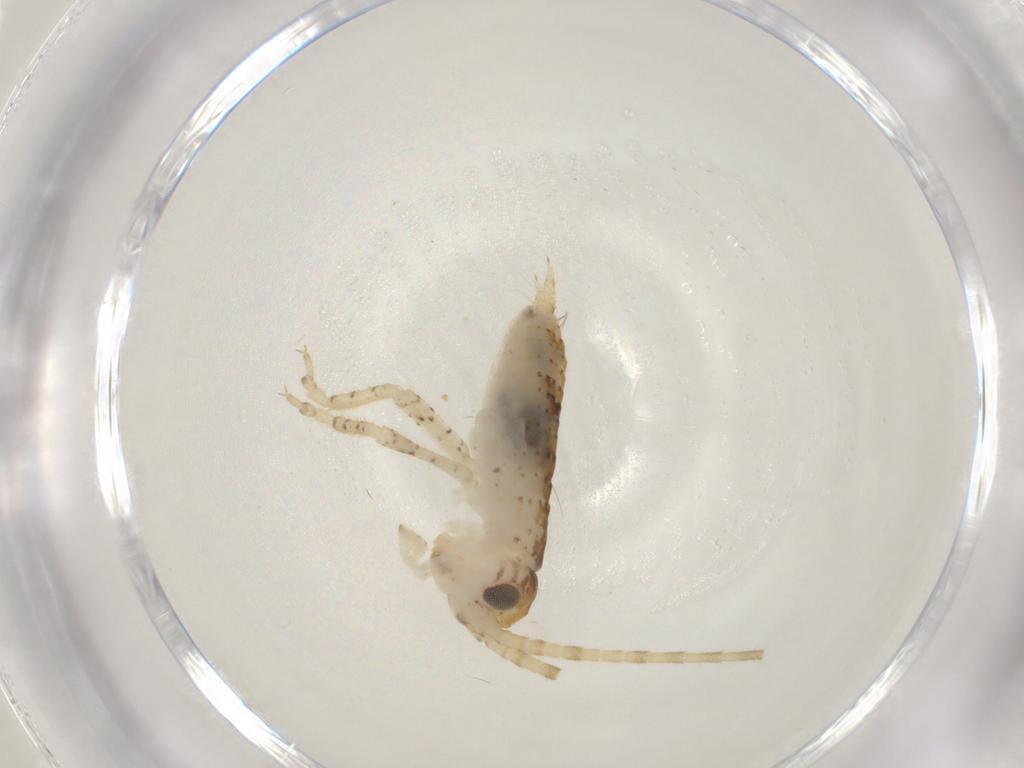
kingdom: Animalia
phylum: Arthropoda
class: Insecta
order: Orthoptera
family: Gryllidae
